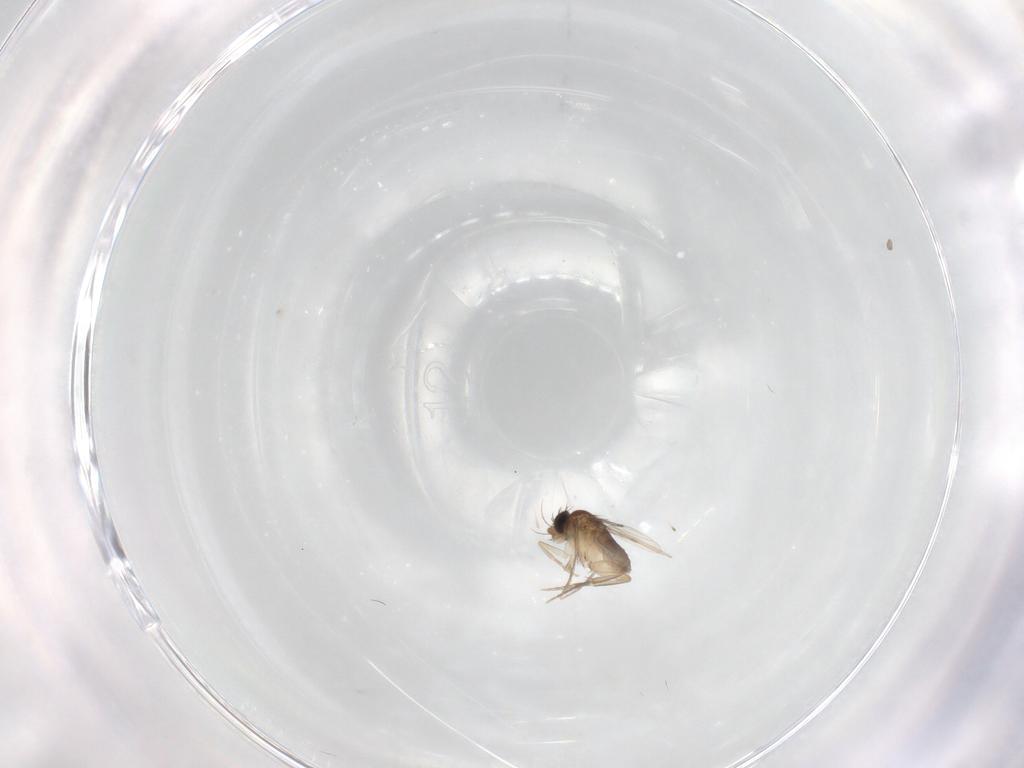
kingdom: Animalia
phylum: Arthropoda
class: Insecta
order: Diptera
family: Phoridae
